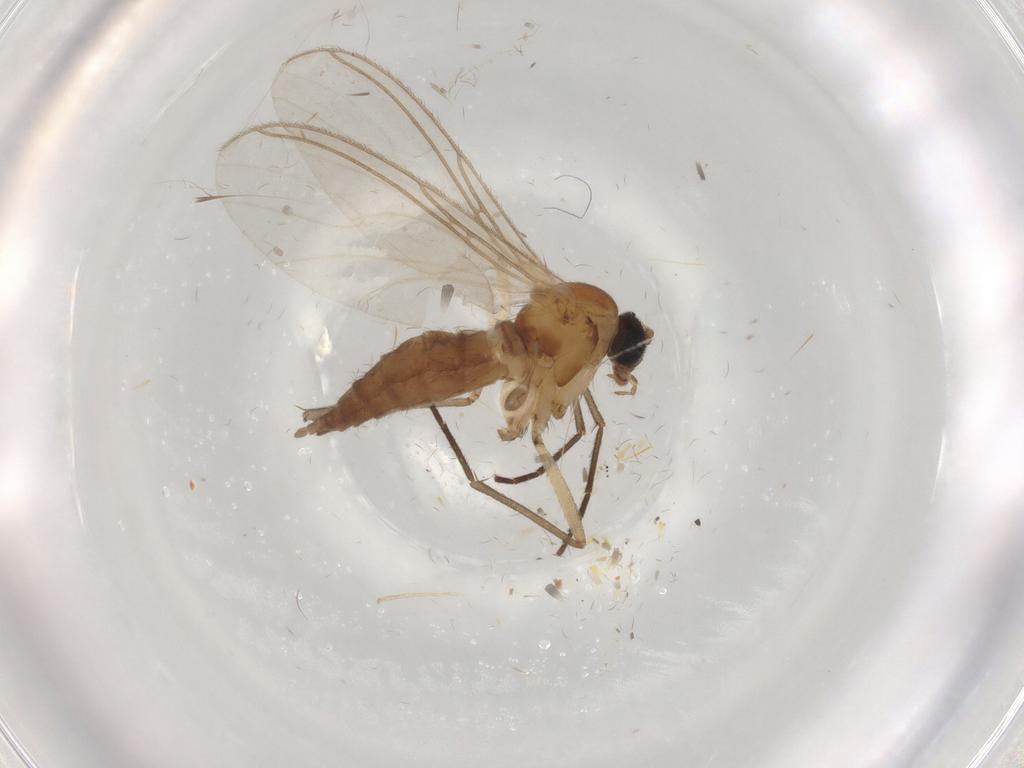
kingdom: Animalia
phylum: Arthropoda
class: Insecta
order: Diptera
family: Sciaridae
